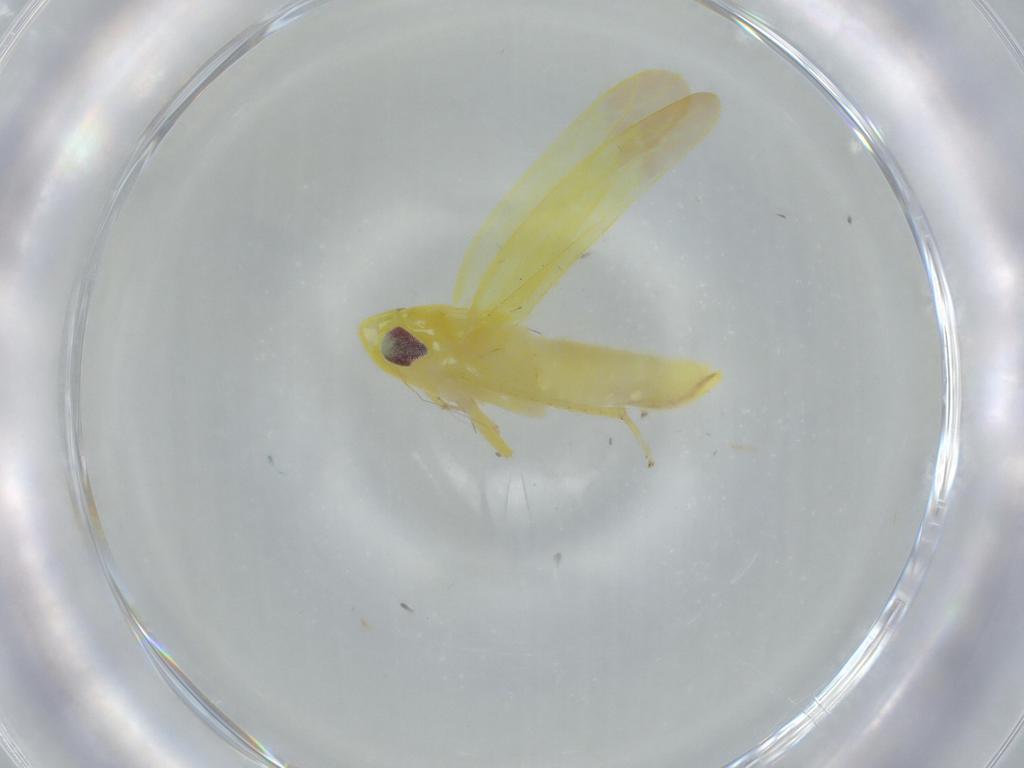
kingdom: Animalia
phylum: Arthropoda
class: Insecta
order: Hemiptera
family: Cicadellidae
